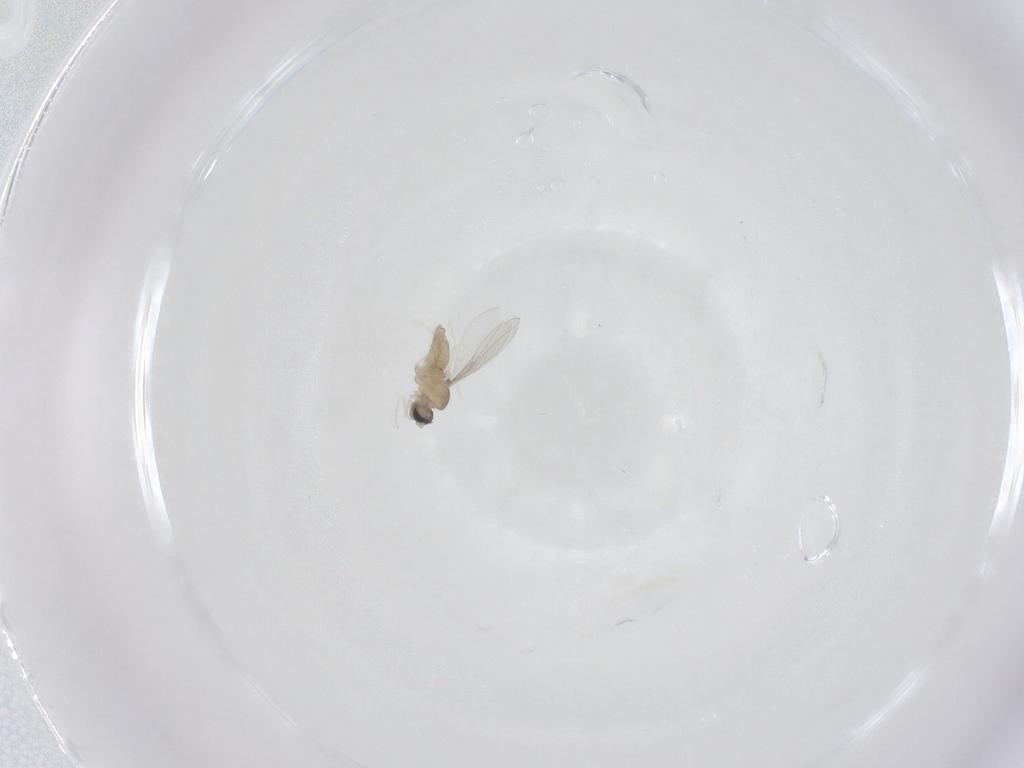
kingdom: Animalia
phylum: Arthropoda
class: Insecta
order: Diptera
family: Tabanidae
